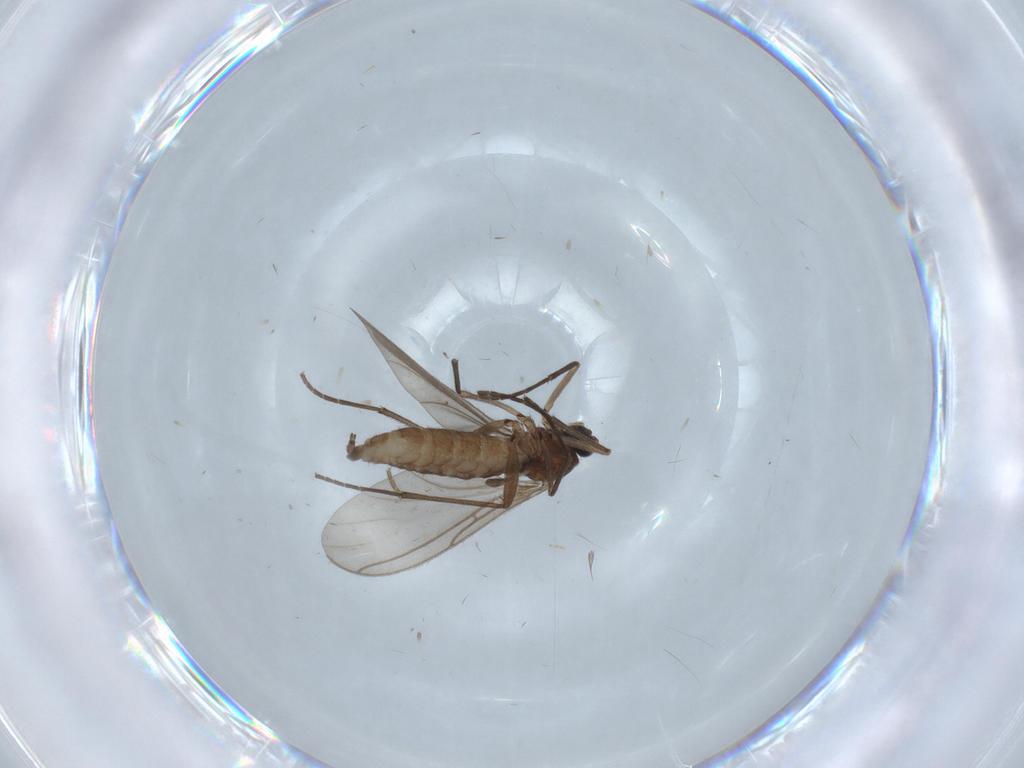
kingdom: Animalia
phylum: Arthropoda
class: Insecta
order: Diptera
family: Sciaridae
